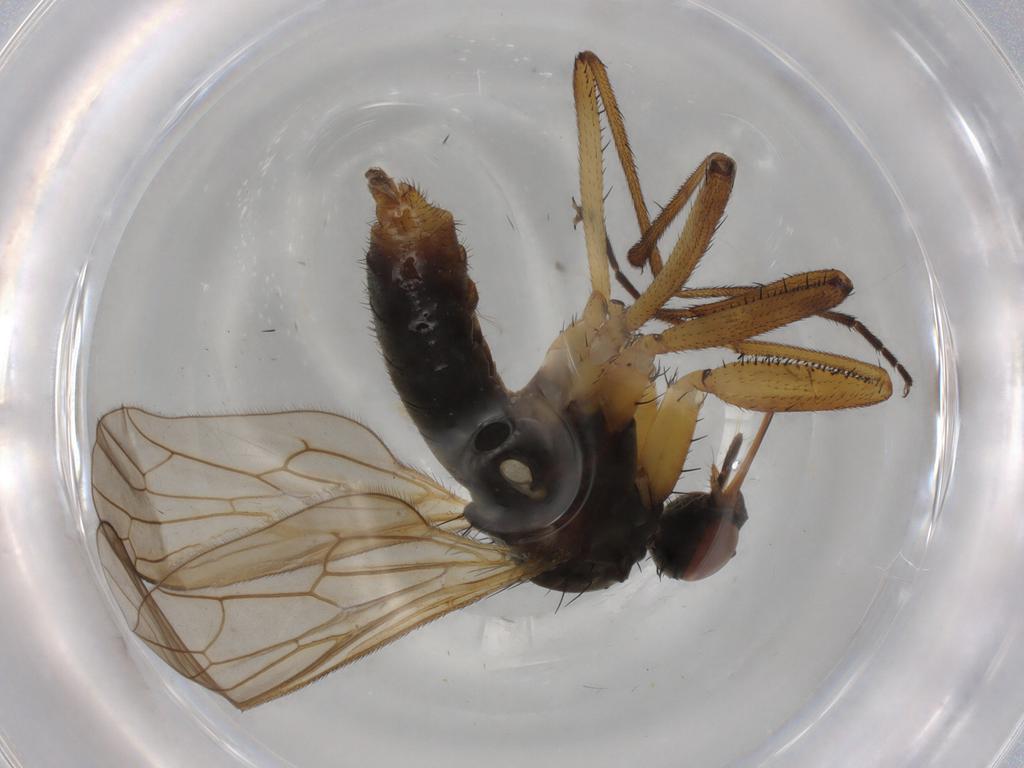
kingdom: Animalia
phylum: Arthropoda
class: Insecta
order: Diptera
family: Empididae
